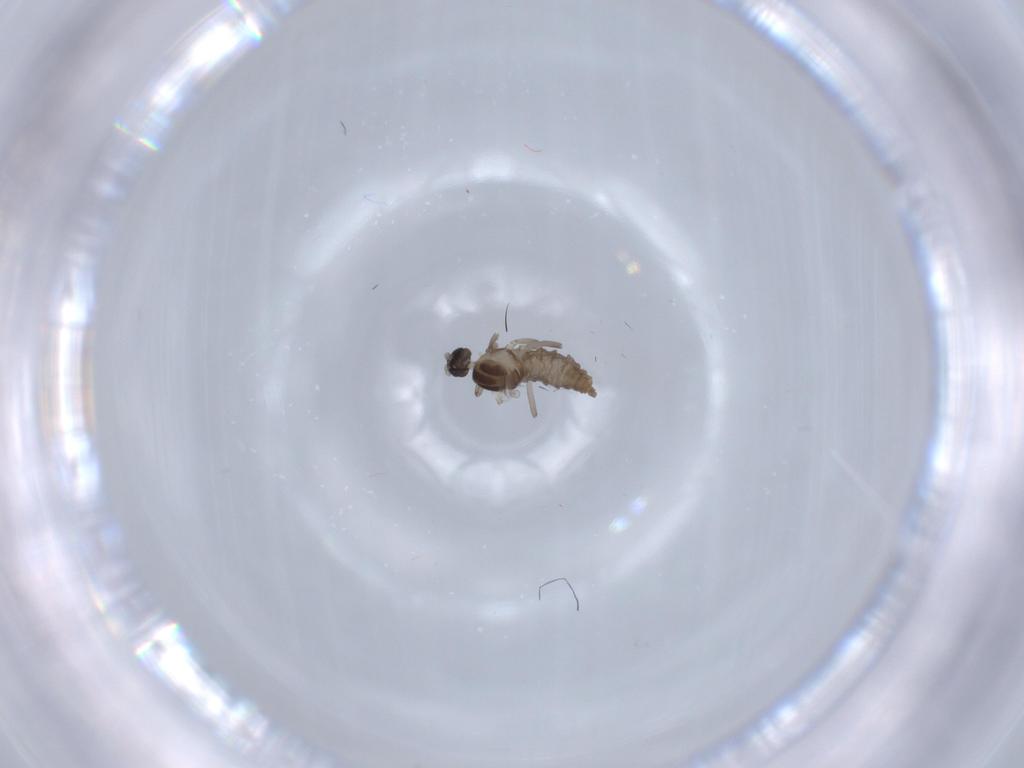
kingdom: Animalia
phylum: Arthropoda
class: Insecta
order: Diptera
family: Cecidomyiidae
